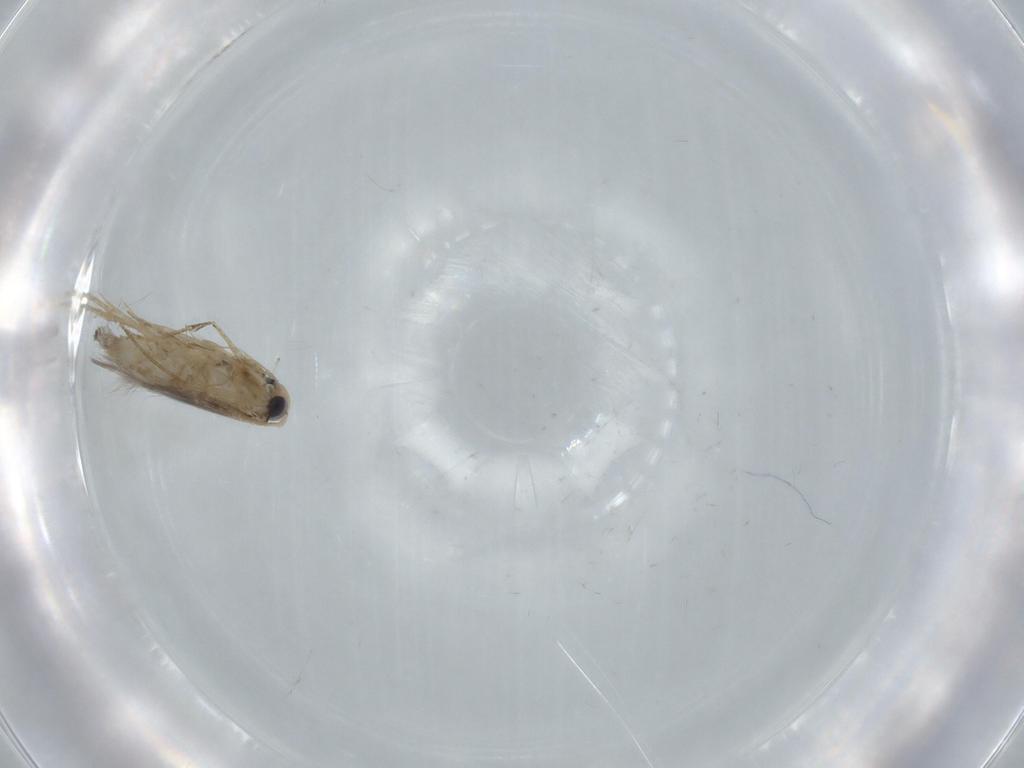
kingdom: Animalia
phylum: Arthropoda
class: Insecta
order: Lepidoptera
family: Gracillariidae
